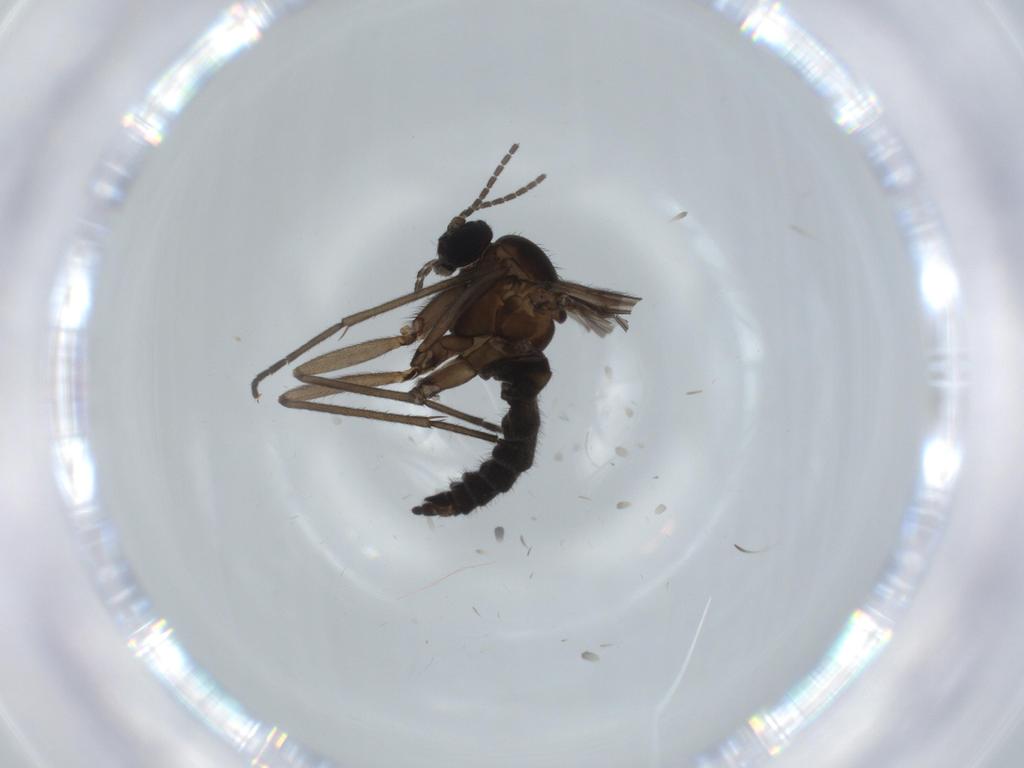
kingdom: Animalia
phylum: Arthropoda
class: Insecta
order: Diptera
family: Sciaridae
